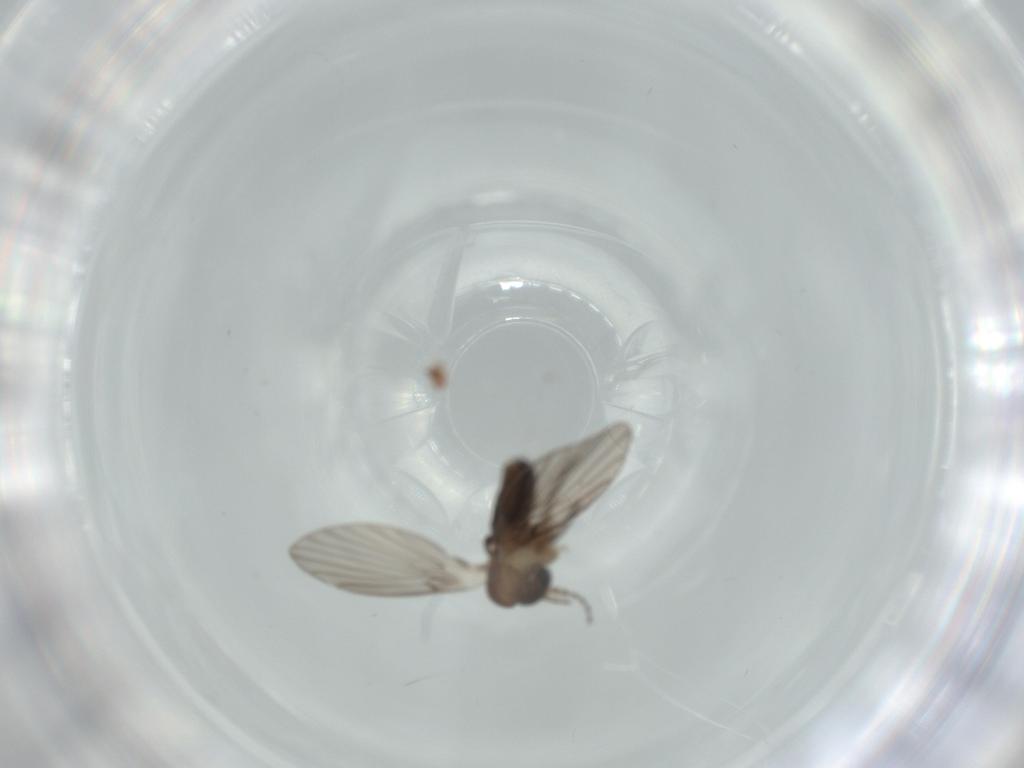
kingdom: Animalia
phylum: Arthropoda
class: Insecta
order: Diptera
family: Psychodidae
